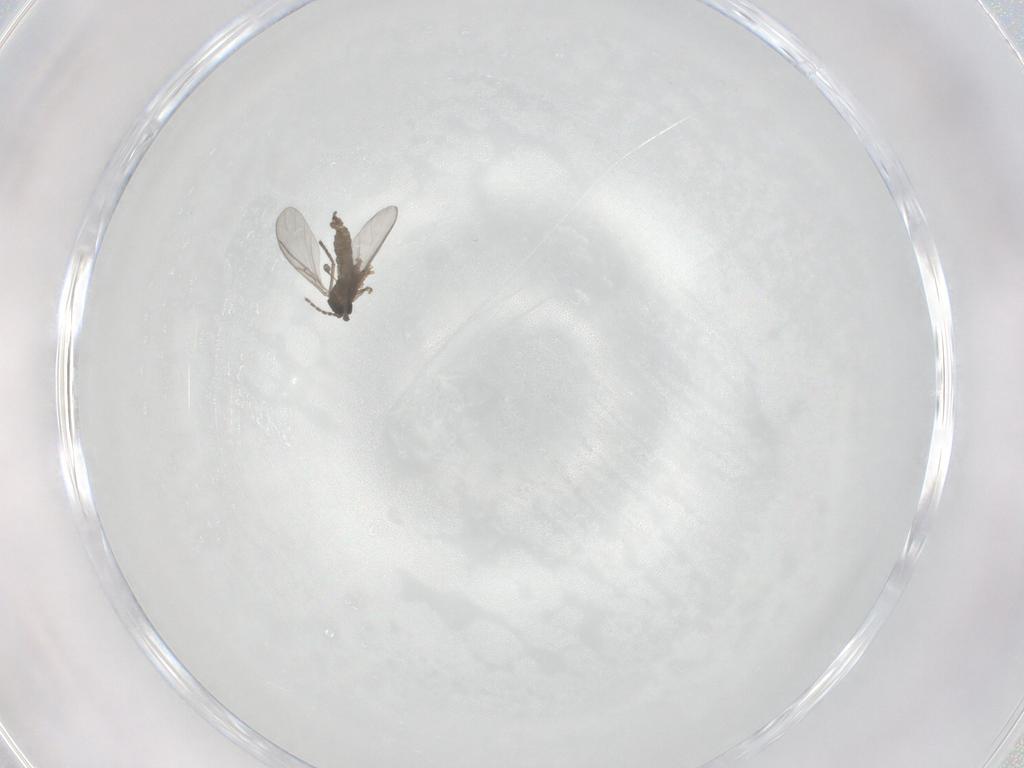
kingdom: Animalia
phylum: Arthropoda
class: Insecta
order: Diptera
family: Sciaridae
